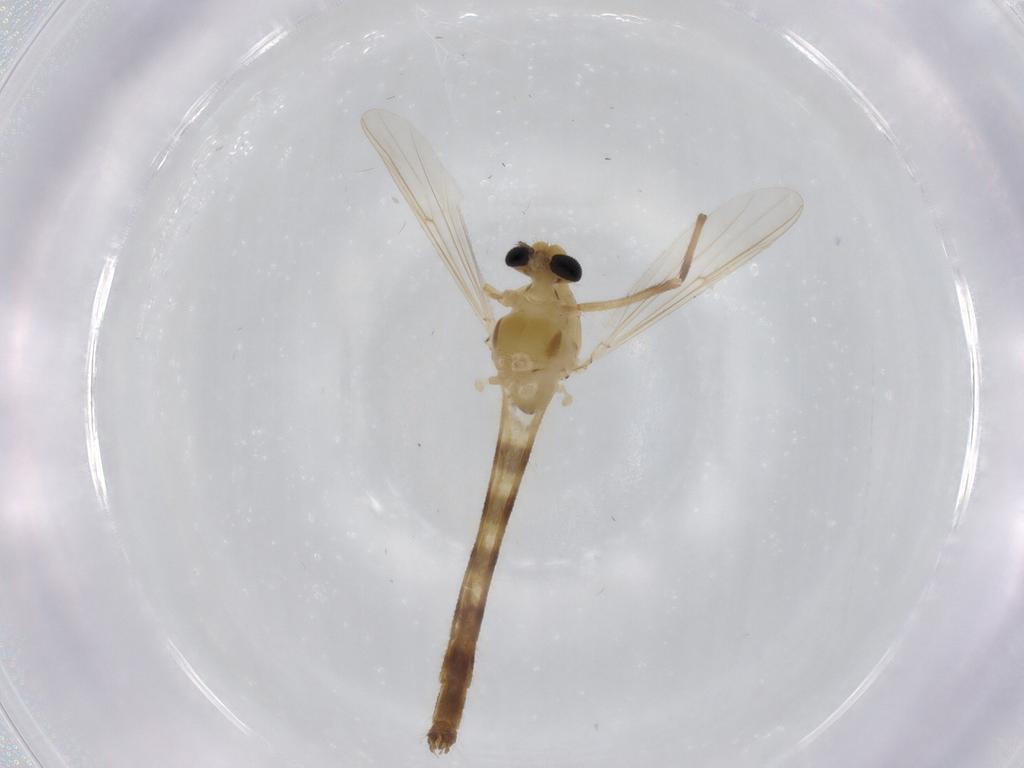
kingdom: Animalia
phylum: Arthropoda
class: Insecta
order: Diptera
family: Chironomidae
